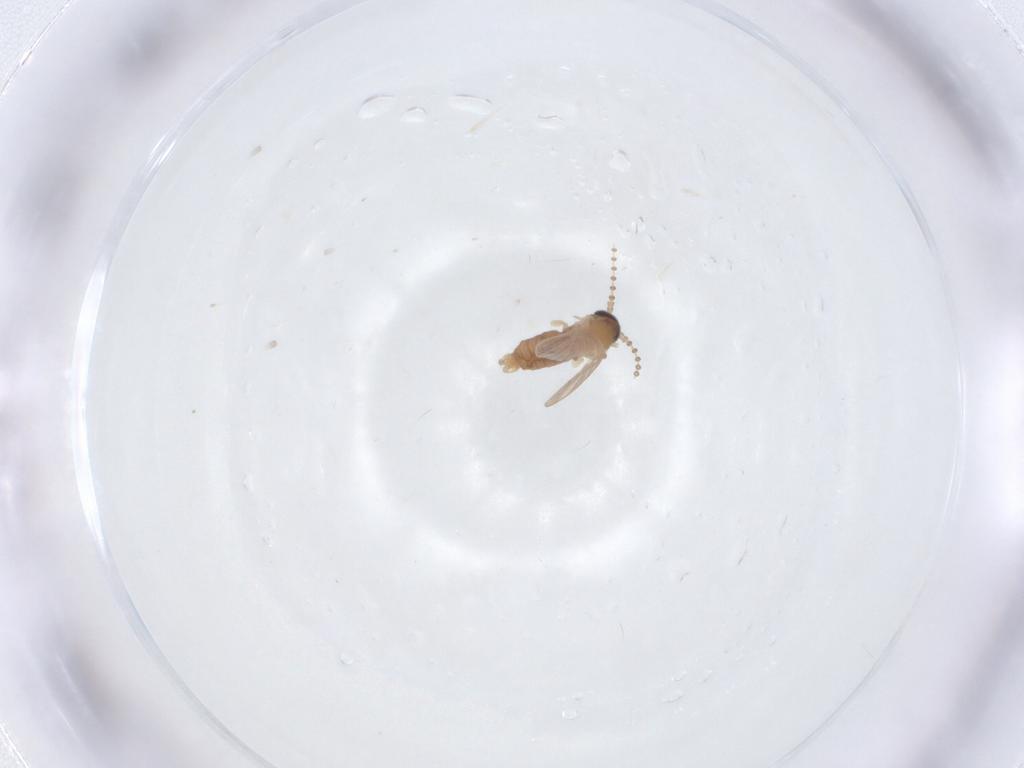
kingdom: Animalia
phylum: Arthropoda
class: Insecta
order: Diptera
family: Psychodidae
